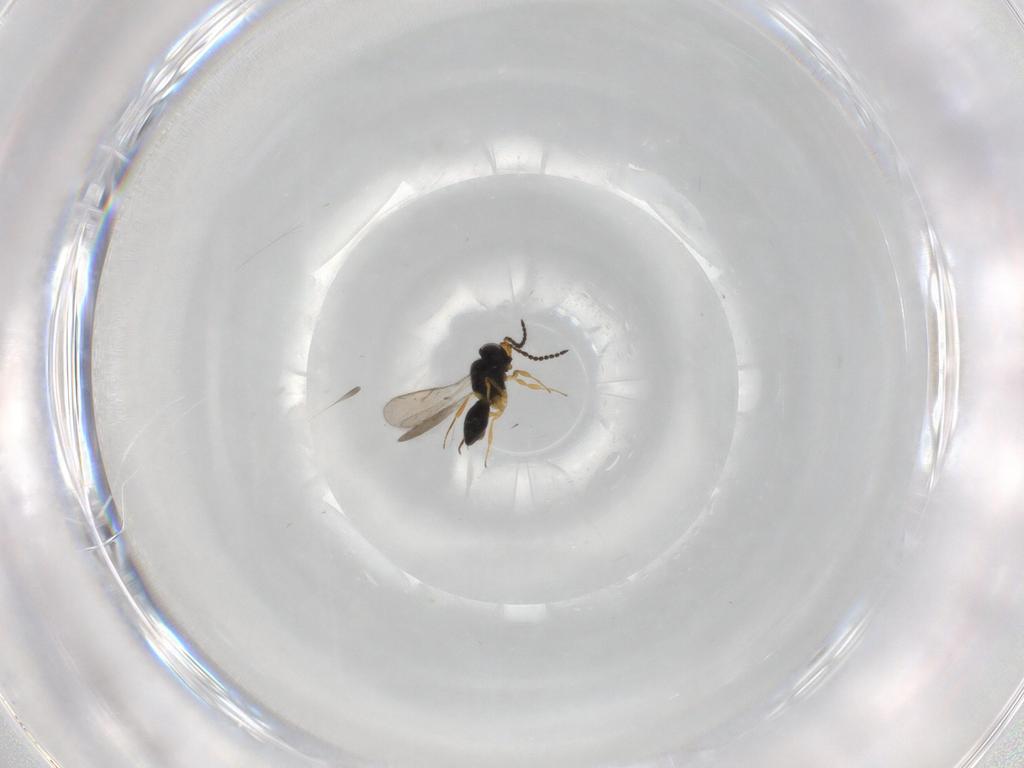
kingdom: Animalia
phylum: Arthropoda
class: Insecta
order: Hymenoptera
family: Scelionidae
